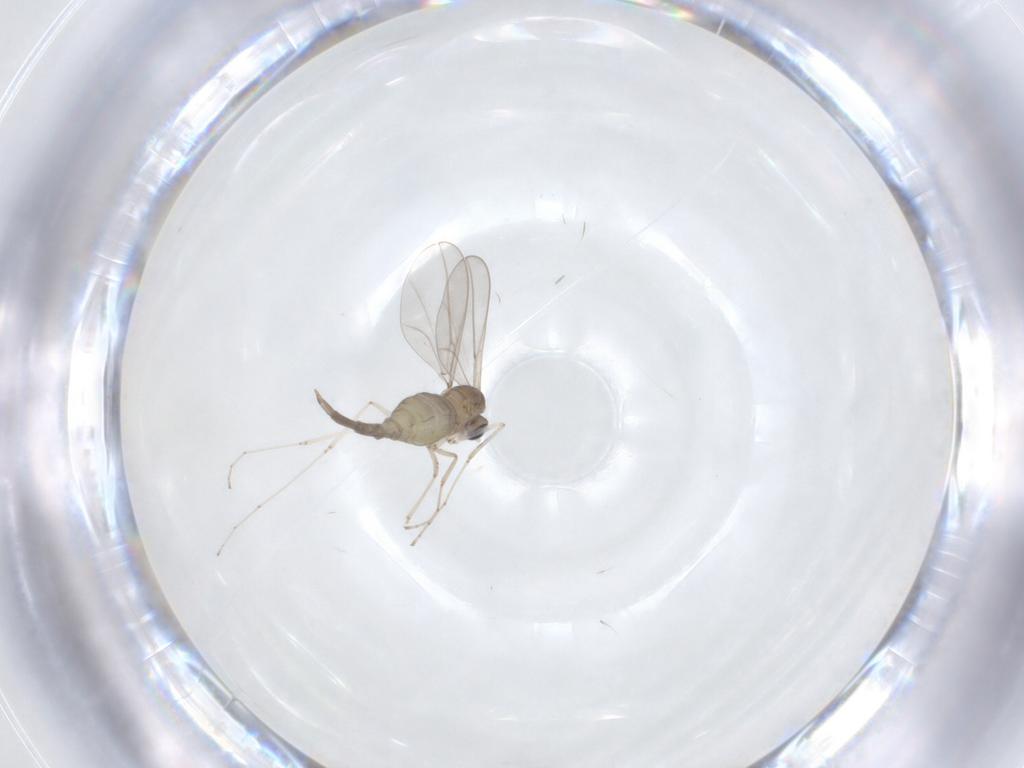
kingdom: Animalia
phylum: Arthropoda
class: Insecta
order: Diptera
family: Cecidomyiidae
